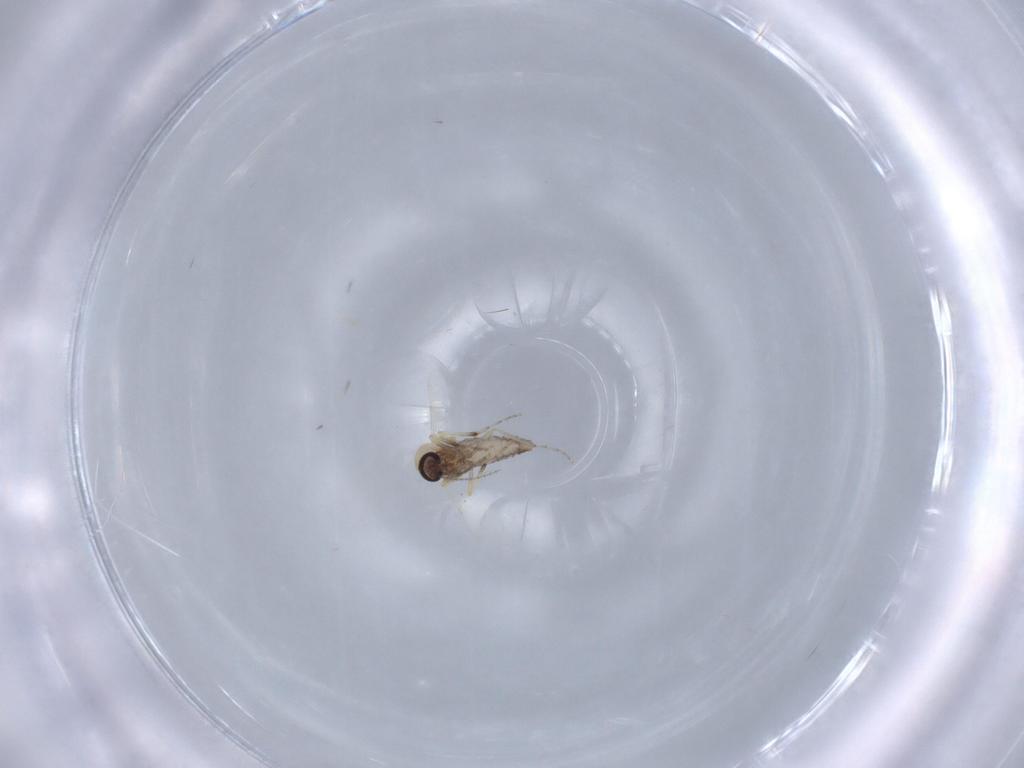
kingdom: Animalia
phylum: Arthropoda
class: Insecta
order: Diptera
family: Ceratopogonidae
